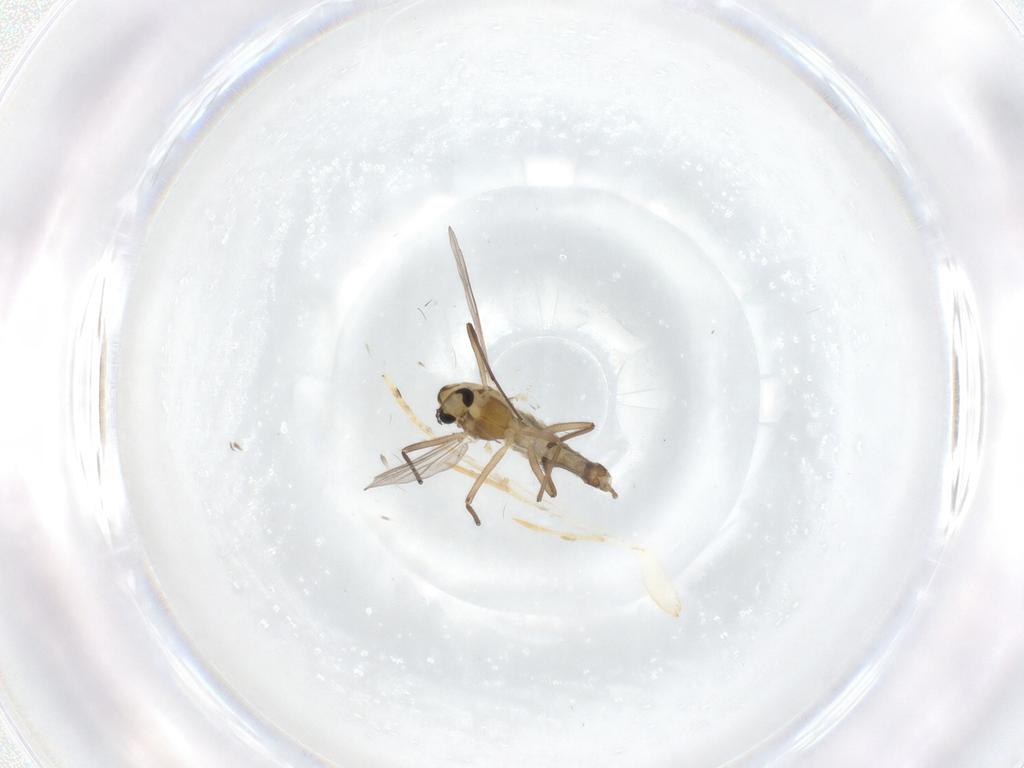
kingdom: Animalia
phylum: Arthropoda
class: Insecta
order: Diptera
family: Chironomidae
